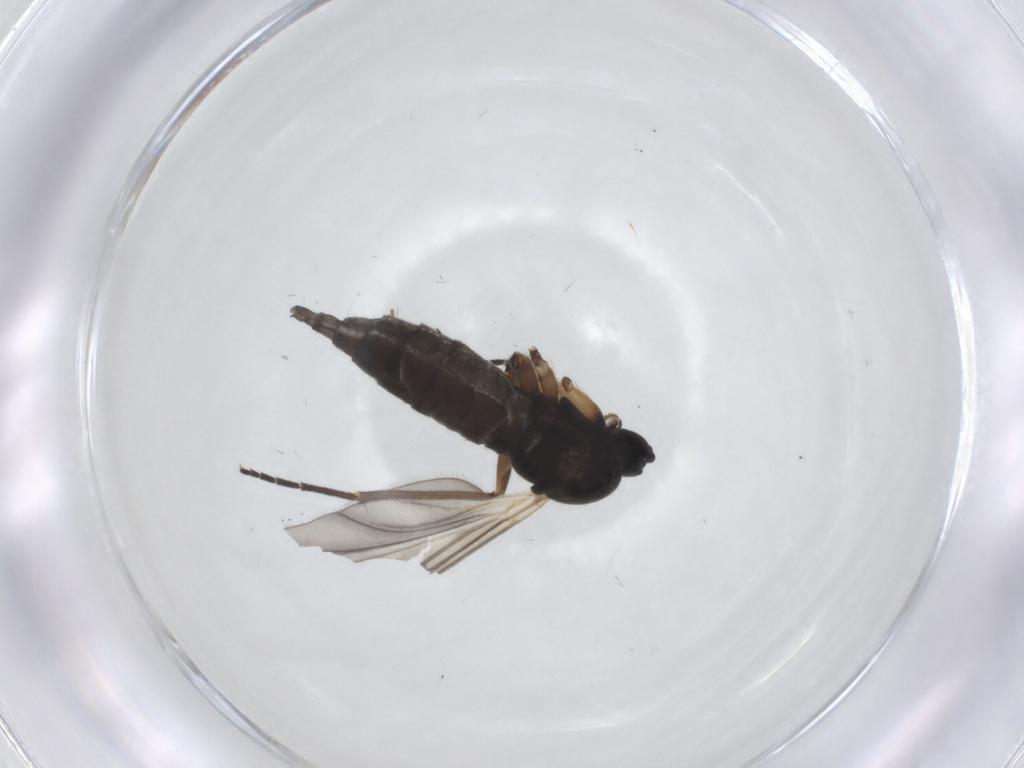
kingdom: Animalia
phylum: Arthropoda
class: Insecta
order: Diptera
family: Sciaridae
